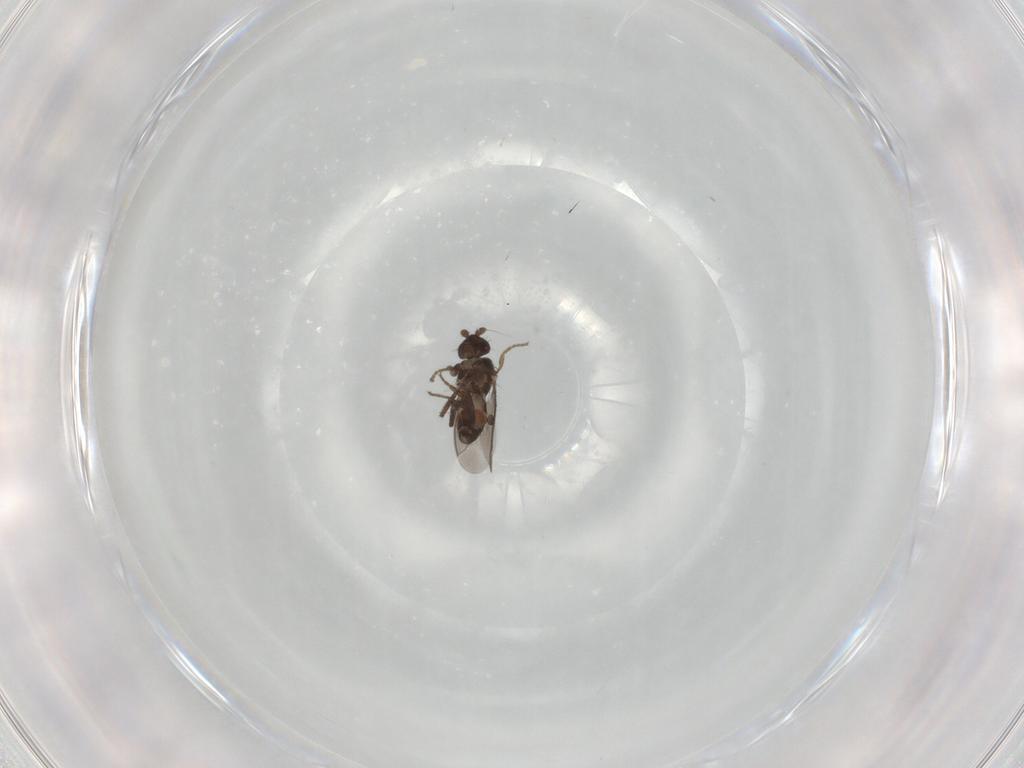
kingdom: Animalia
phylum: Arthropoda
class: Insecta
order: Diptera
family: Sphaeroceridae
